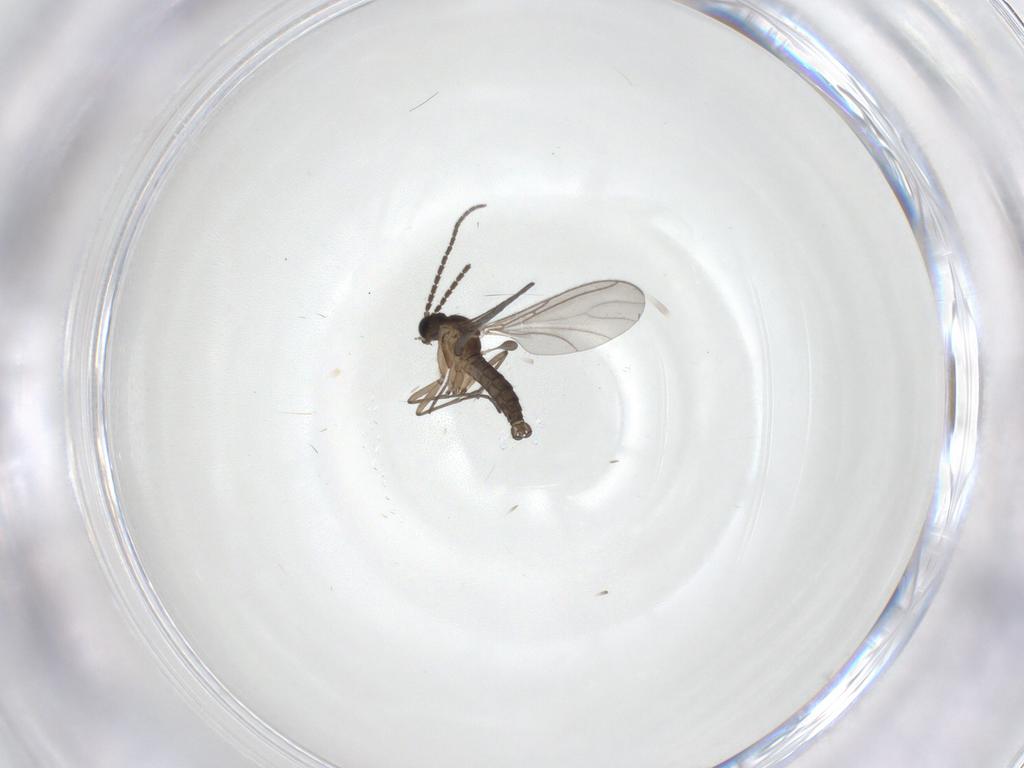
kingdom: Animalia
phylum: Arthropoda
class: Insecta
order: Diptera
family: Sciaridae
